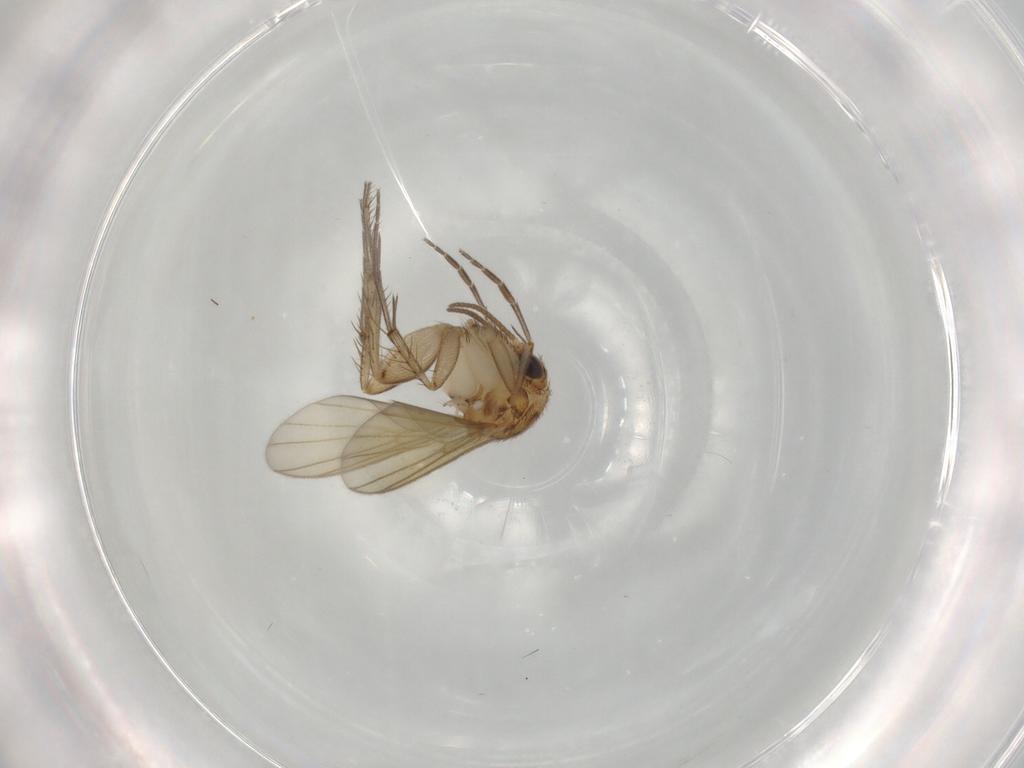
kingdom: Animalia
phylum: Arthropoda
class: Insecta
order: Diptera
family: Mycetophilidae
